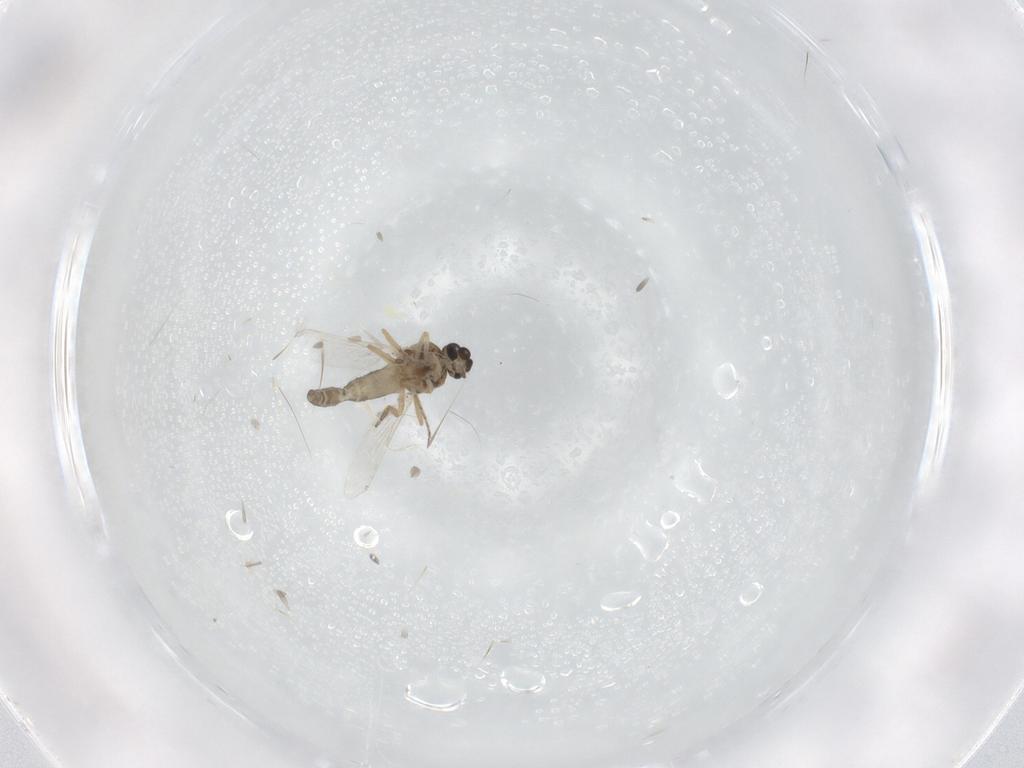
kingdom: Animalia
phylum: Arthropoda
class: Insecta
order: Diptera
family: Ceratopogonidae
